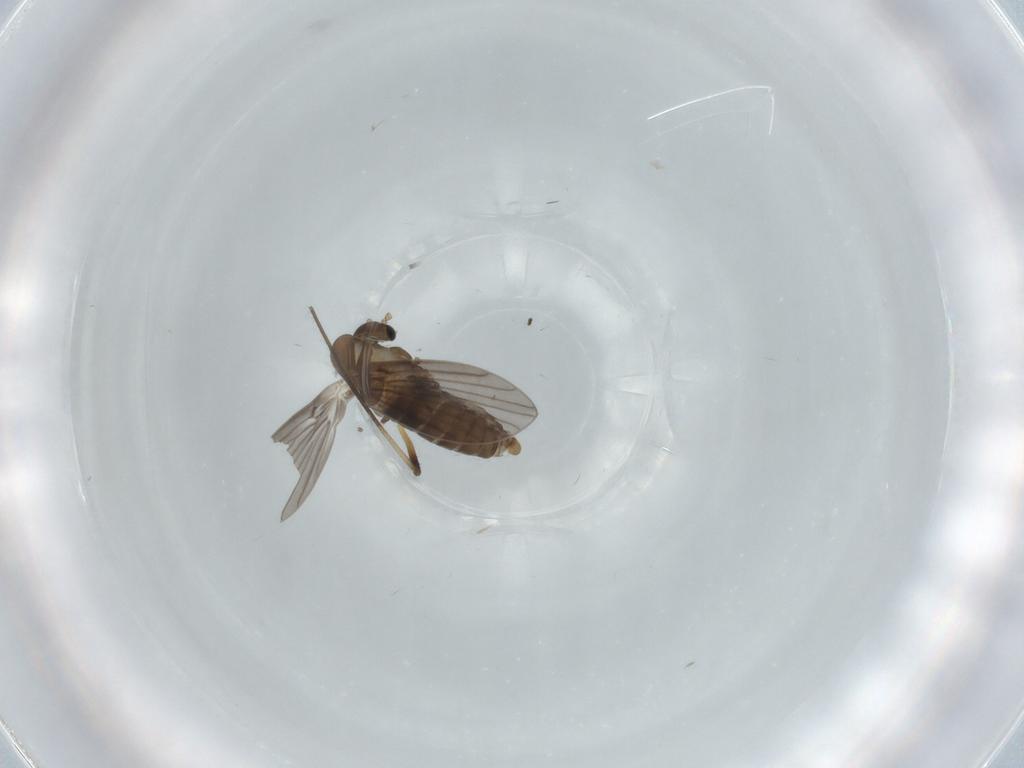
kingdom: Animalia
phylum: Arthropoda
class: Insecta
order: Diptera
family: Psychodidae
